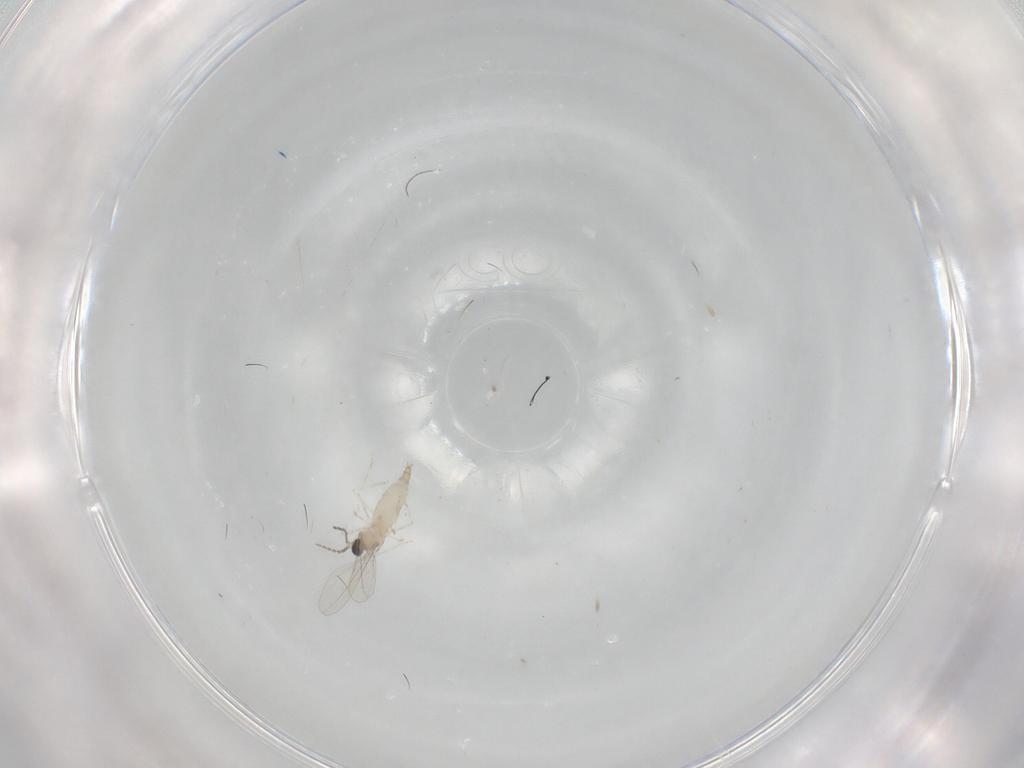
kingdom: Animalia
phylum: Arthropoda
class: Insecta
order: Diptera
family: Cecidomyiidae
